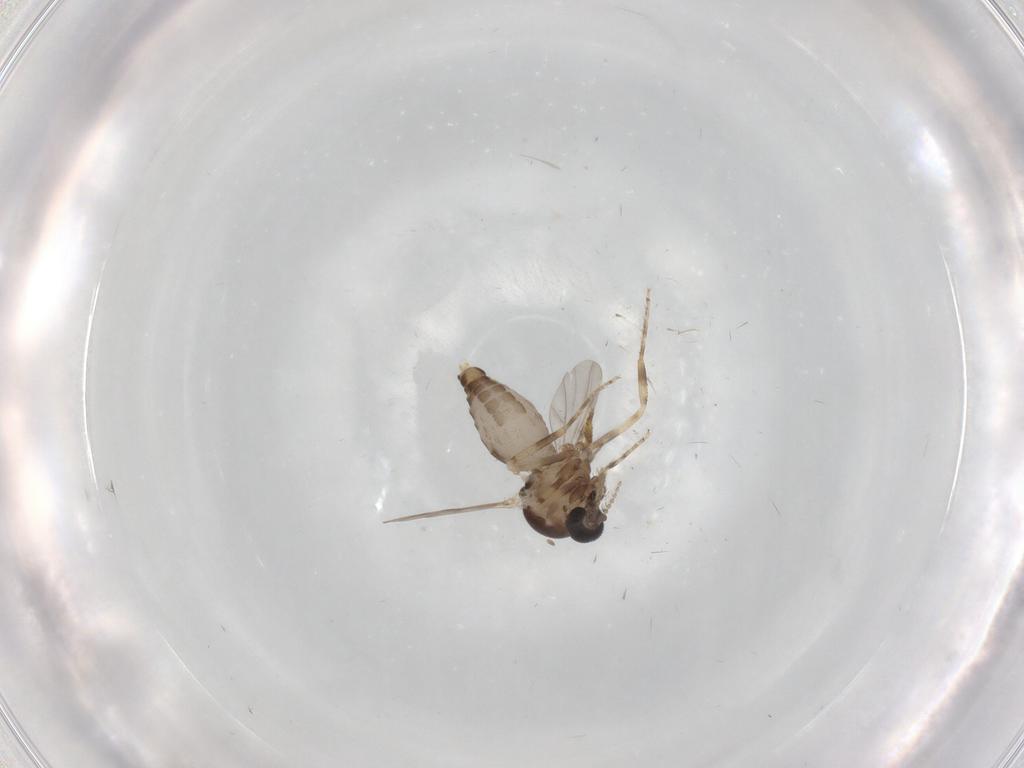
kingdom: Animalia
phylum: Arthropoda
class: Insecta
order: Diptera
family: Ceratopogonidae
